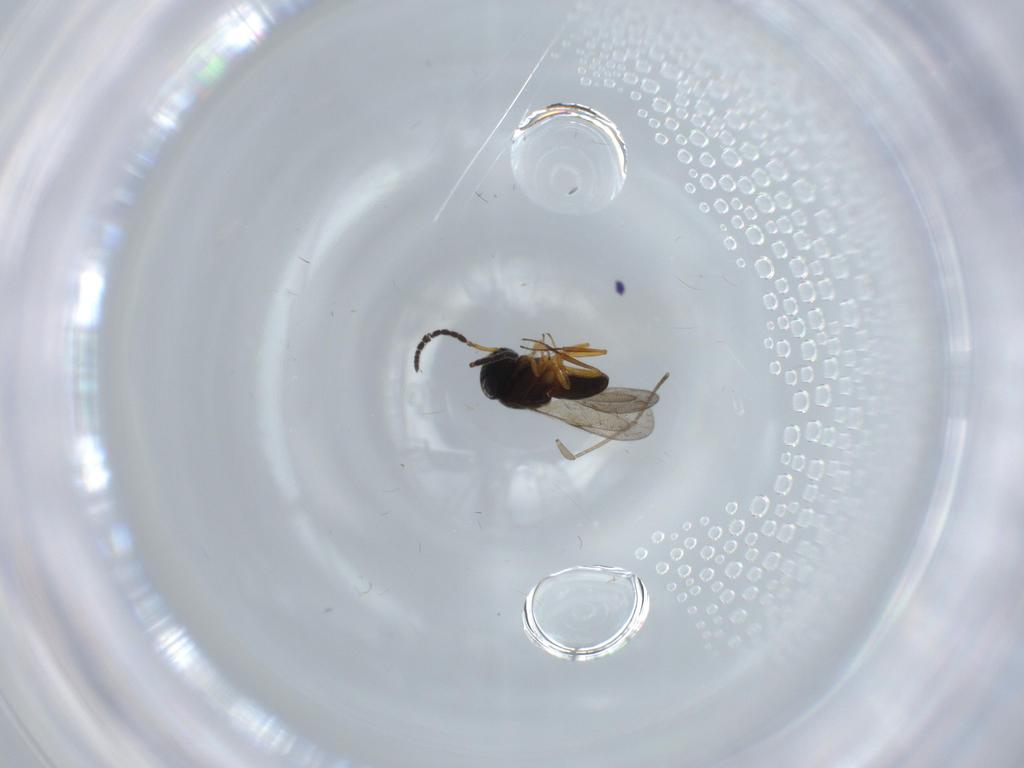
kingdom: Animalia
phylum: Arthropoda
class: Insecta
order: Coleoptera
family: Curculionidae
